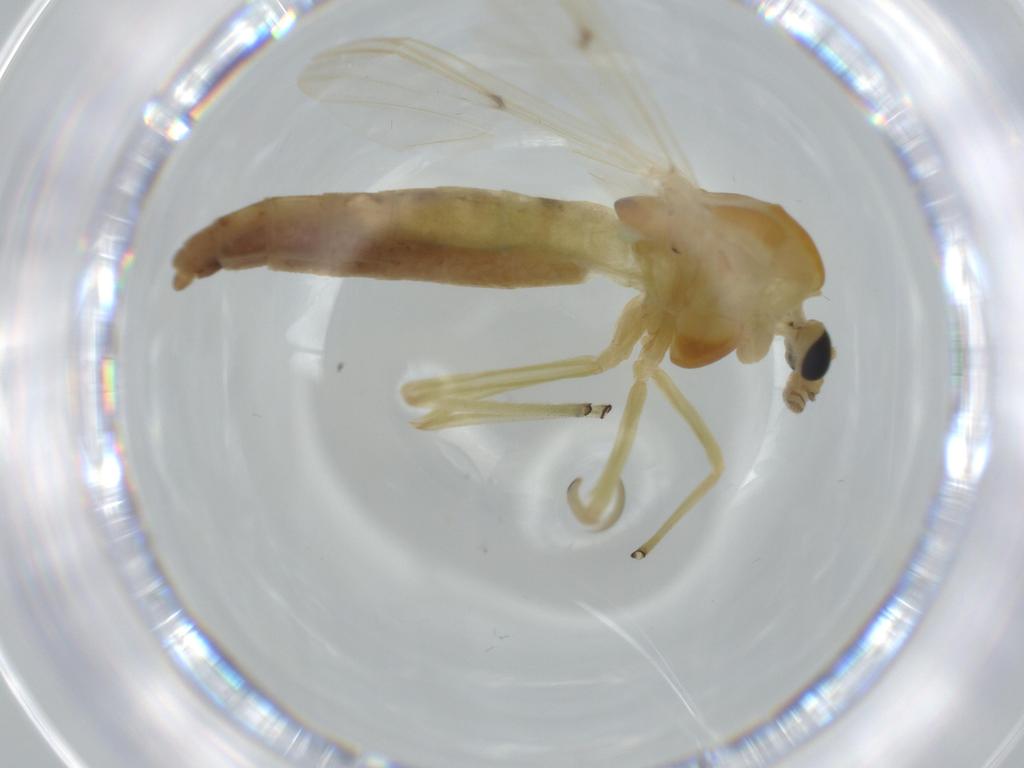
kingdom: Animalia
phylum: Arthropoda
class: Insecta
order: Diptera
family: Chironomidae
